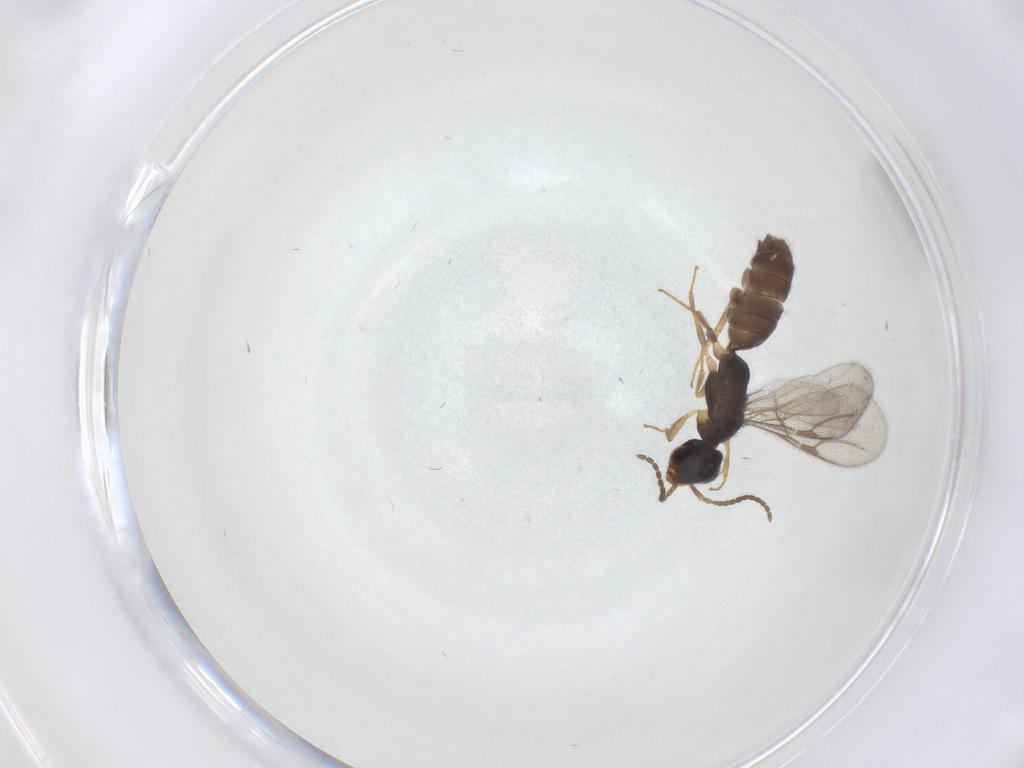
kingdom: Animalia
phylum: Arthropoda
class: Insecta
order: Hymenoptera
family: Bethylidae
